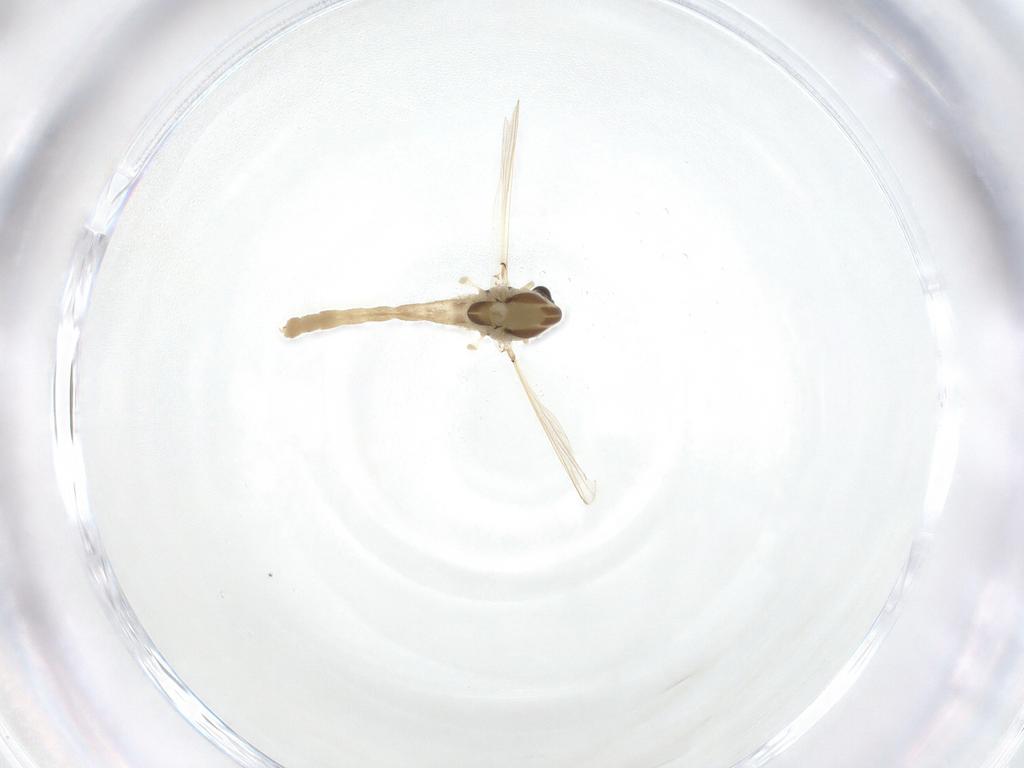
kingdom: Animalia
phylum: Arthropoda
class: Insecta
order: Diptera
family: Chironomidae
